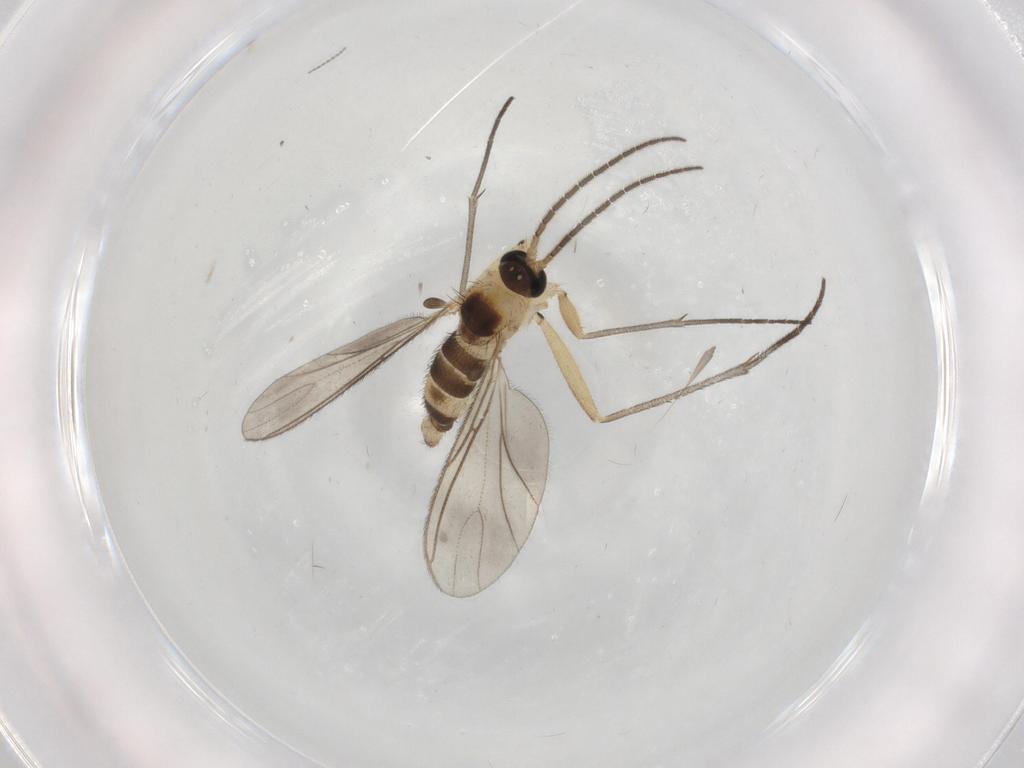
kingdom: Animalia
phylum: Arthropoda
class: Insecta
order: Diptera
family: Sciaridae
